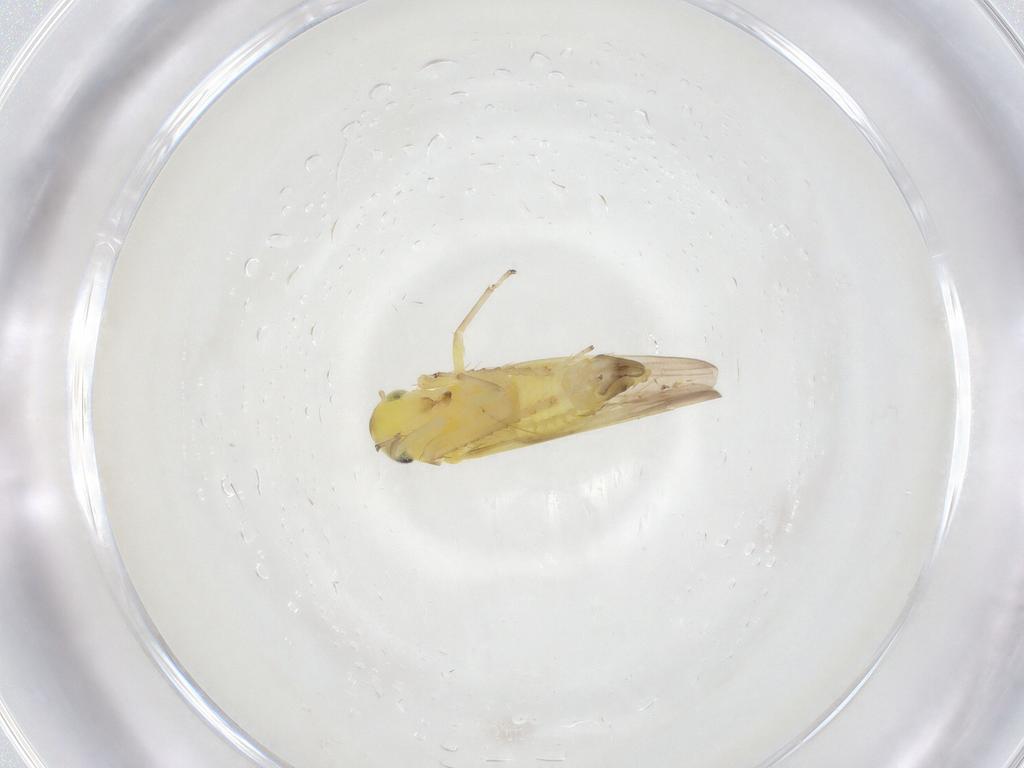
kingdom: Animalia
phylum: Arthropoda
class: Insecta
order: Hemiptera
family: Cicadellidae
